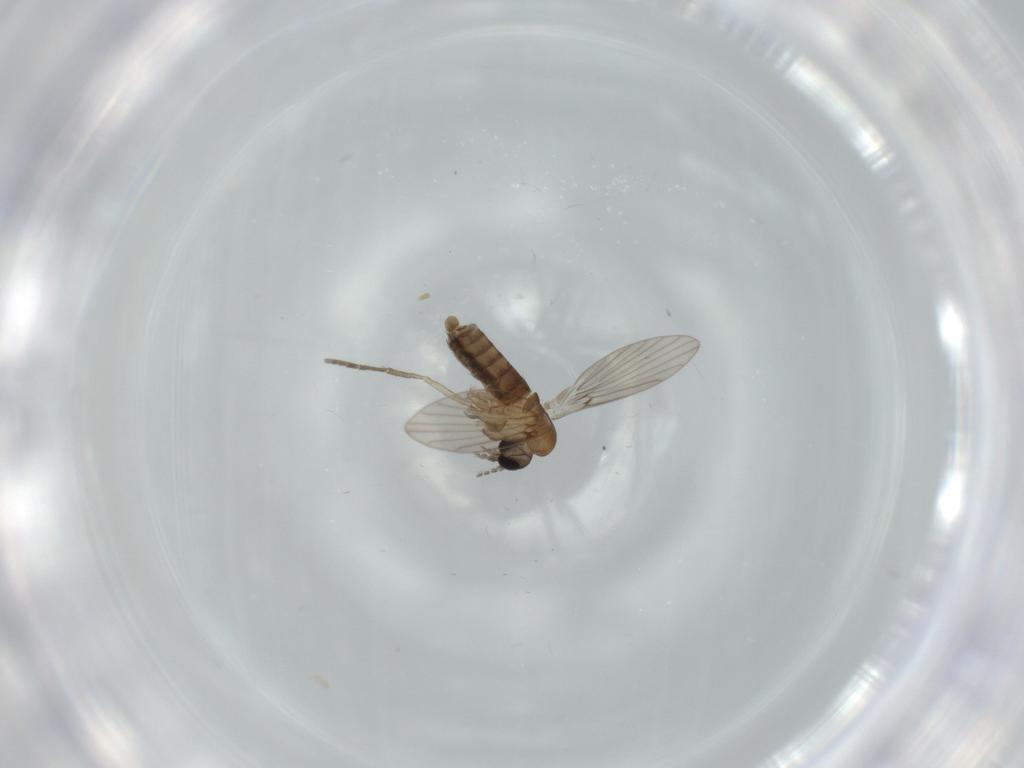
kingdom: Animalia
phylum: Arthropoda
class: Insecta
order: Diptera
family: Psychodidae
